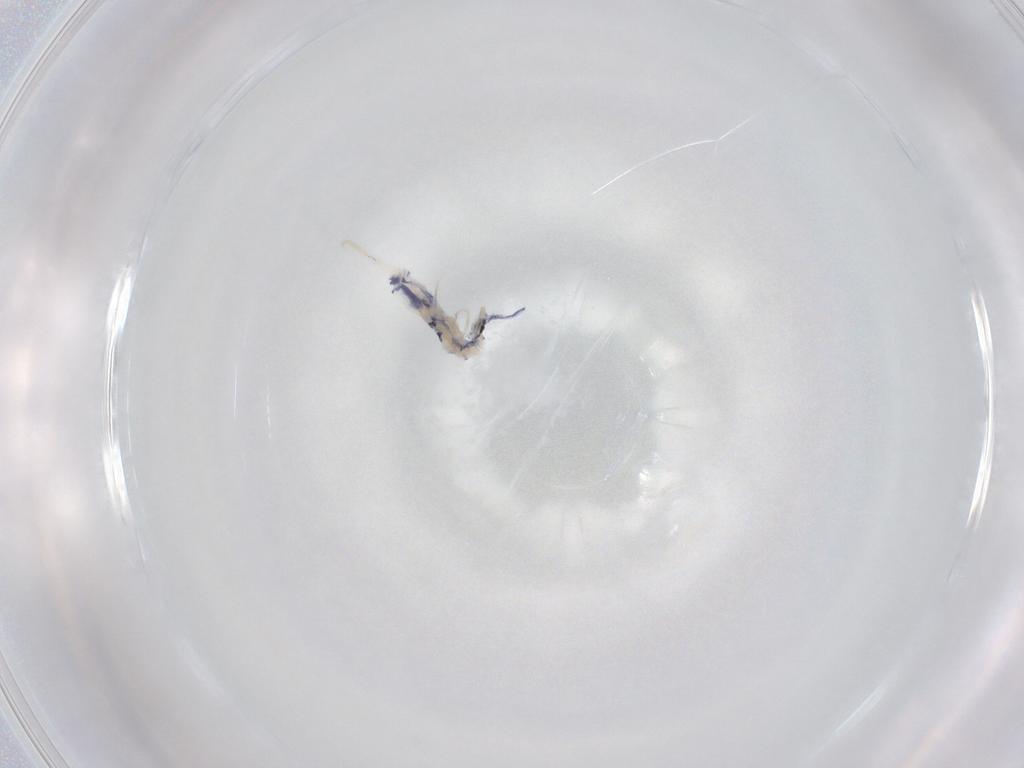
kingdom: Animalia
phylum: Arthropoda
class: Collembola
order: Entomobryomorpha
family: Entomobryidae
